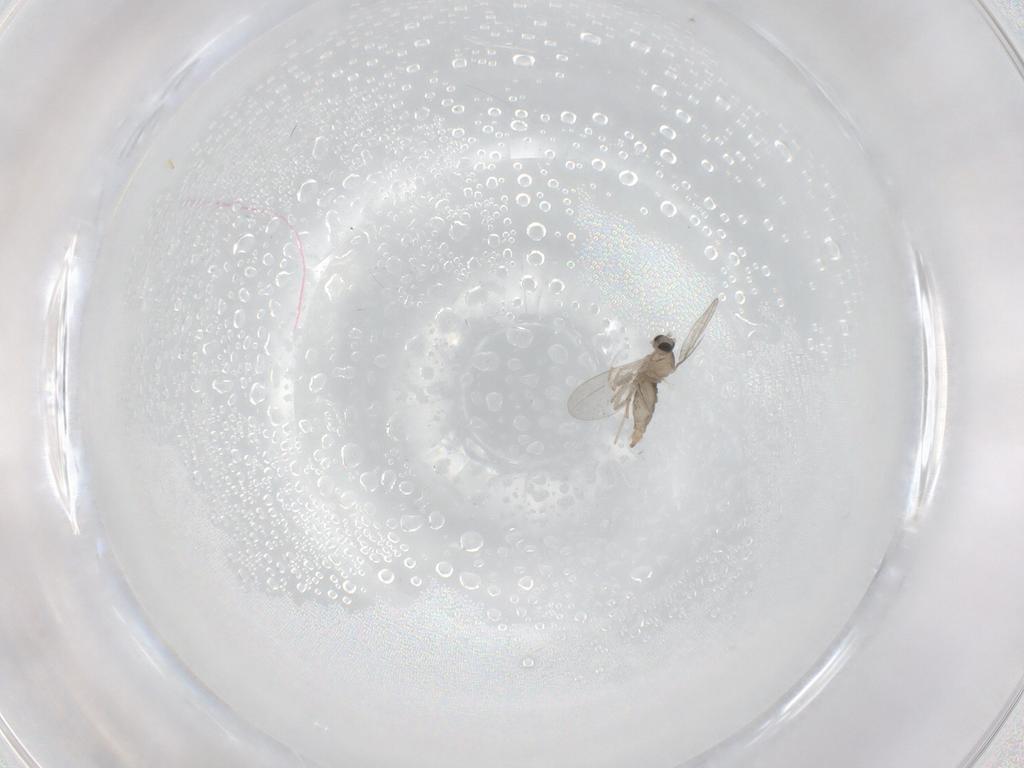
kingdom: Animalia
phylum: Arthropoda
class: Insecta
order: Diptera
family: Cecidomyiidae
